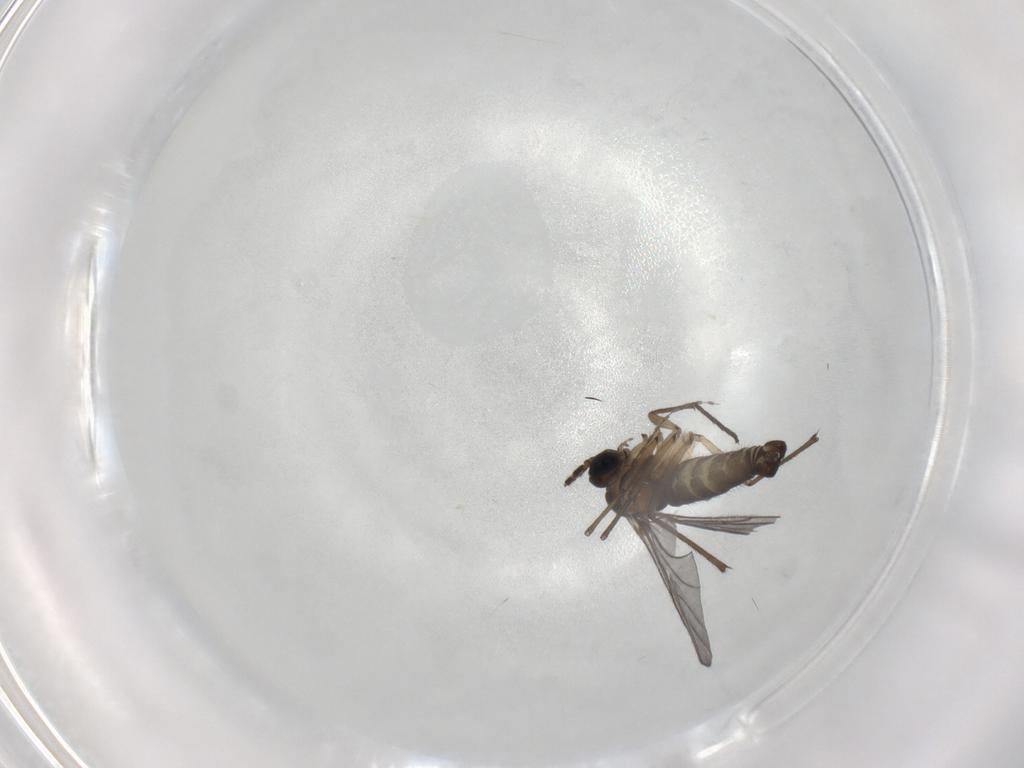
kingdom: Animalia
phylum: Arthropoda
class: Insecta
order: Diptera
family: Sciaridae
